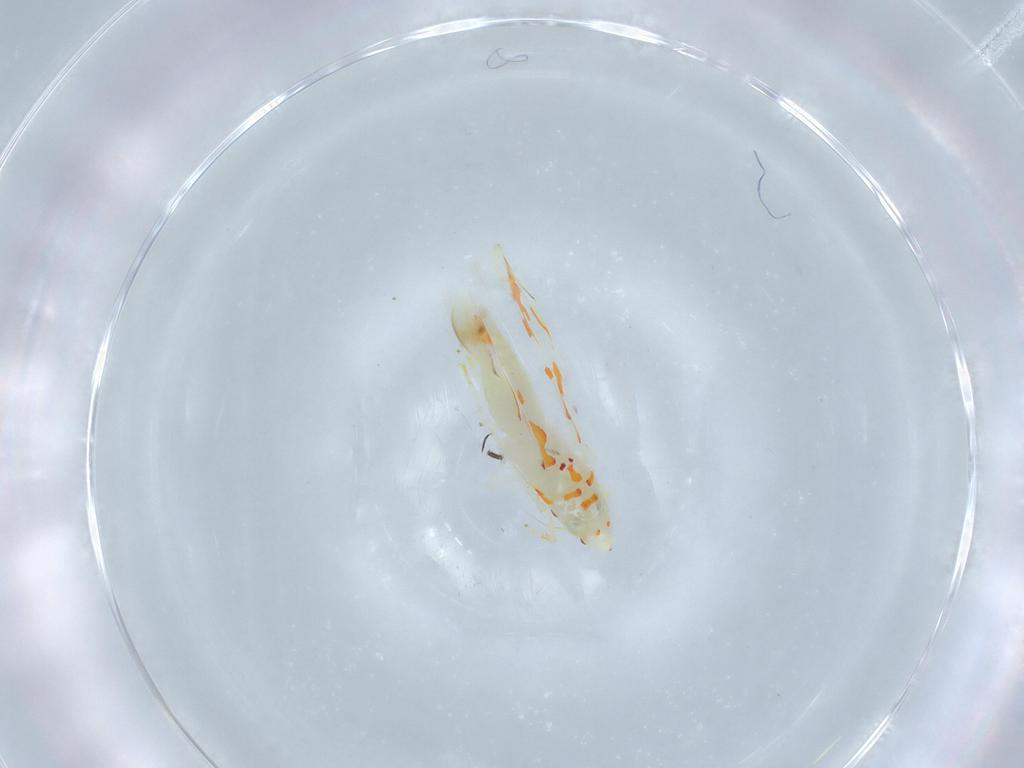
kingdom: Animalia
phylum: Arthropoda
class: Insecta
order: Hemiptera
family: Cicadellidae
